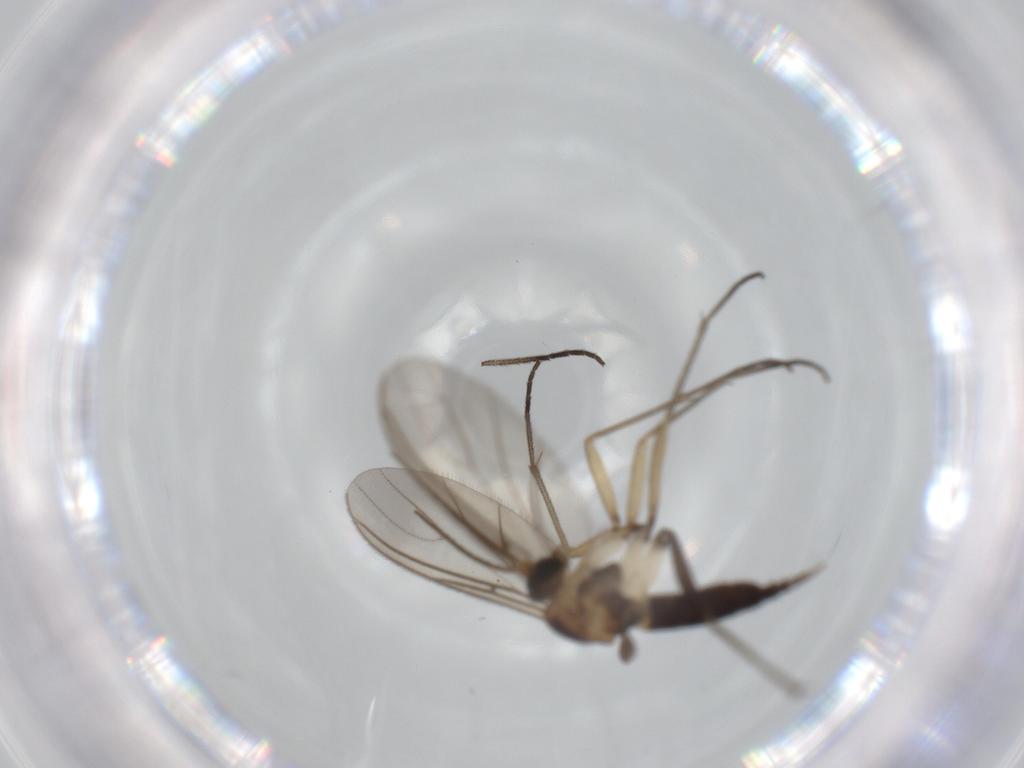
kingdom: Animalia
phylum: Arthropoda
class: Insecta
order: Diptera
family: Sciaridae
